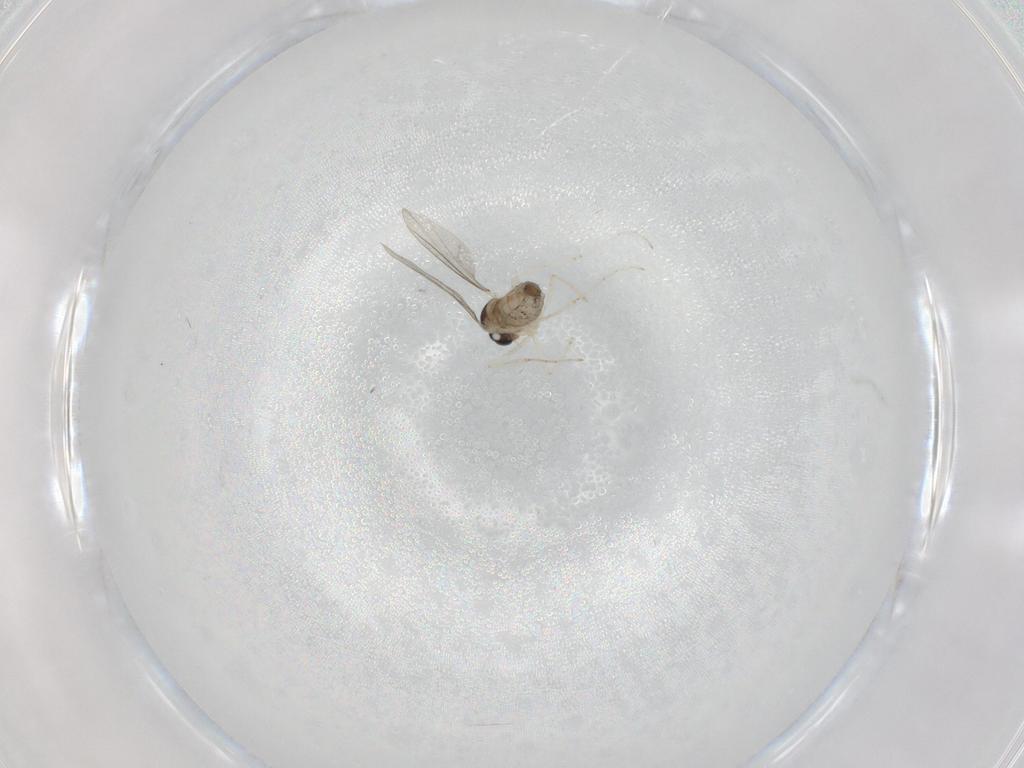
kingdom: Animalia
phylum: Arthropoda
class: Insecta
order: Diptera
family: Cecidomyiidae
